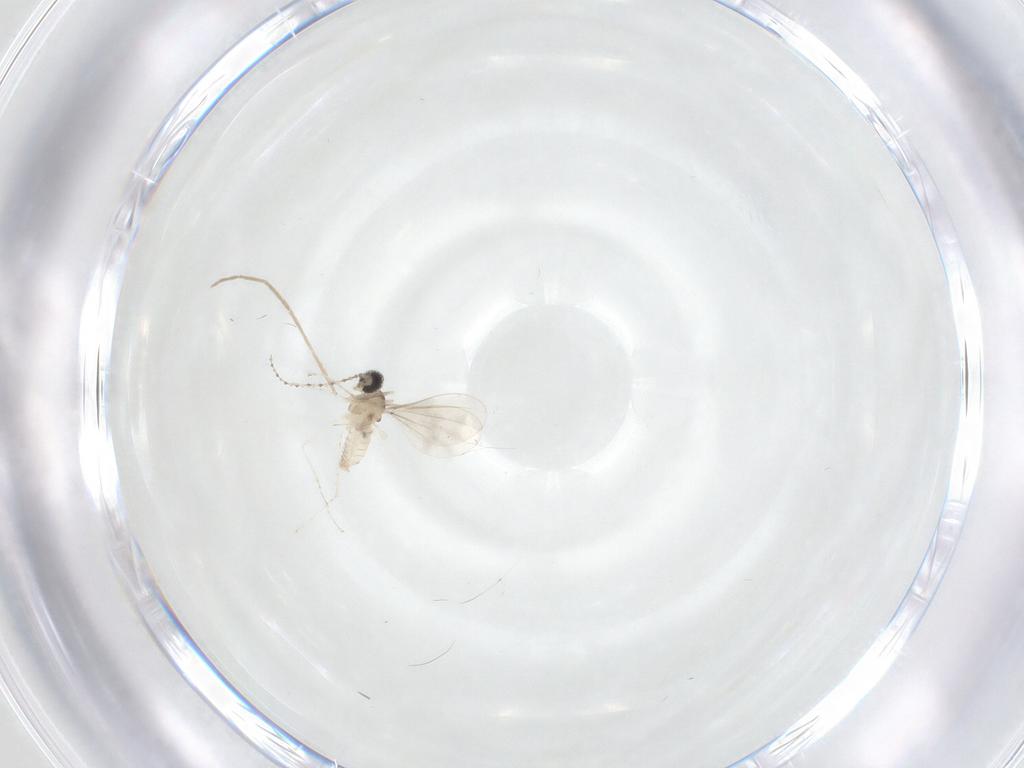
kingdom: Animalia
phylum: Arthropoda
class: Insecta
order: Diptera
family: Cecidomyiidae
